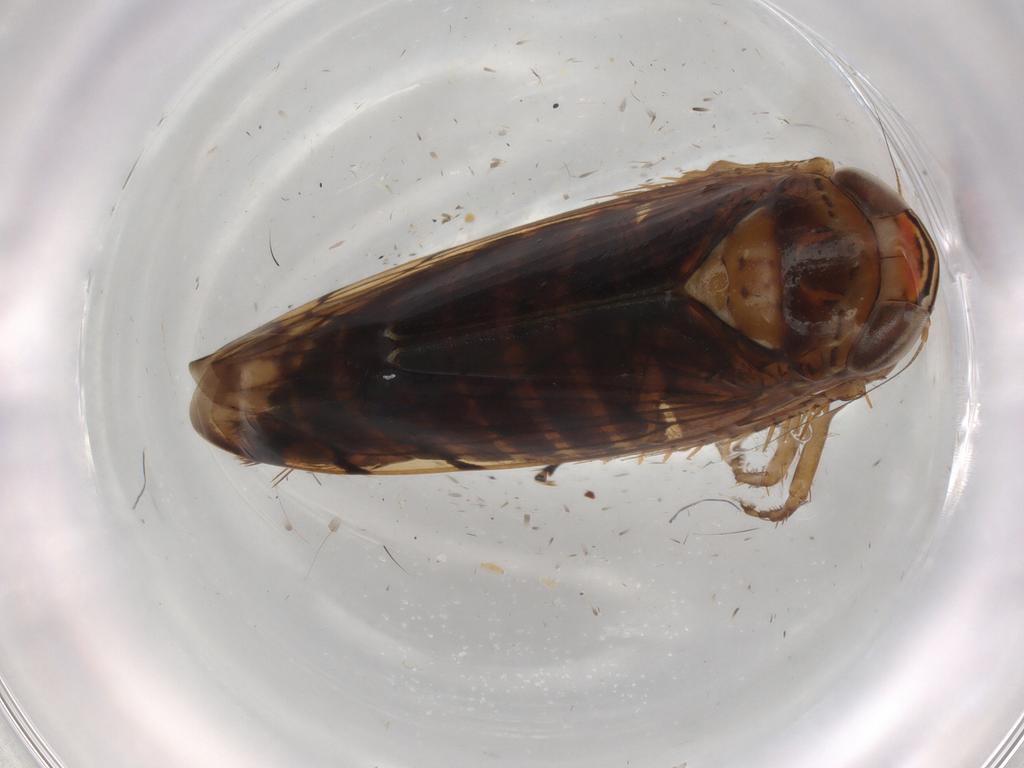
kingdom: Animalia
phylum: Arthropoda
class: Insecta
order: Hemiptera
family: Cicadellidae
